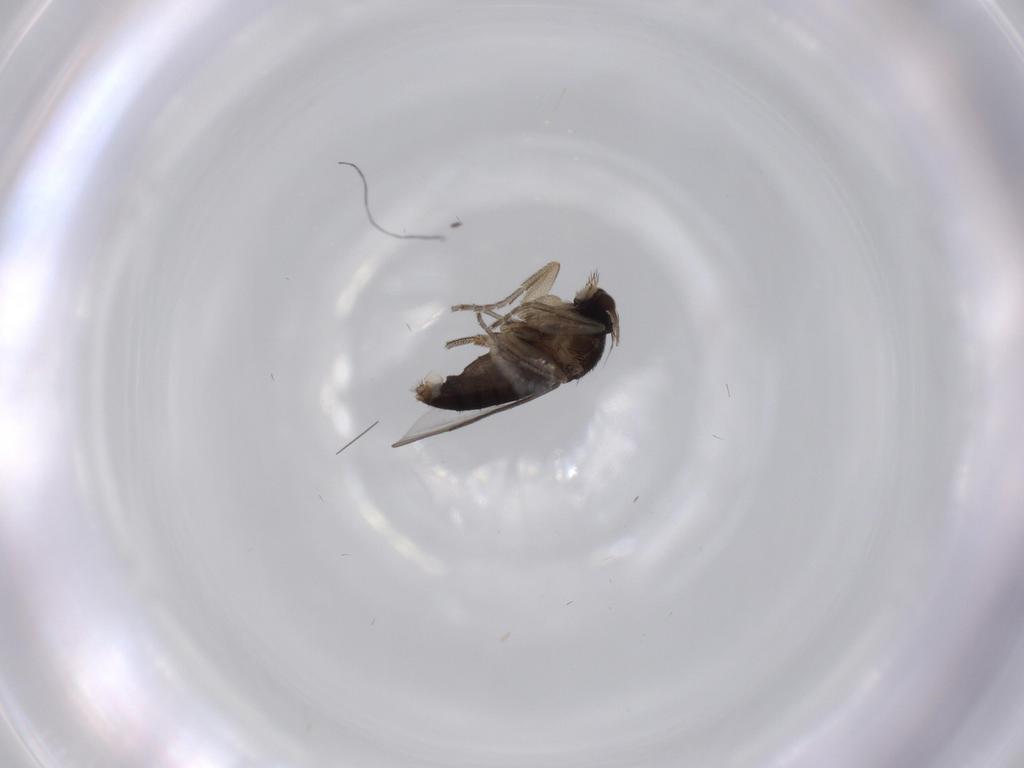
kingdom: Animalia
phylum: Arthropoda
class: Insecta
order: Diptera
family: Phoridae
